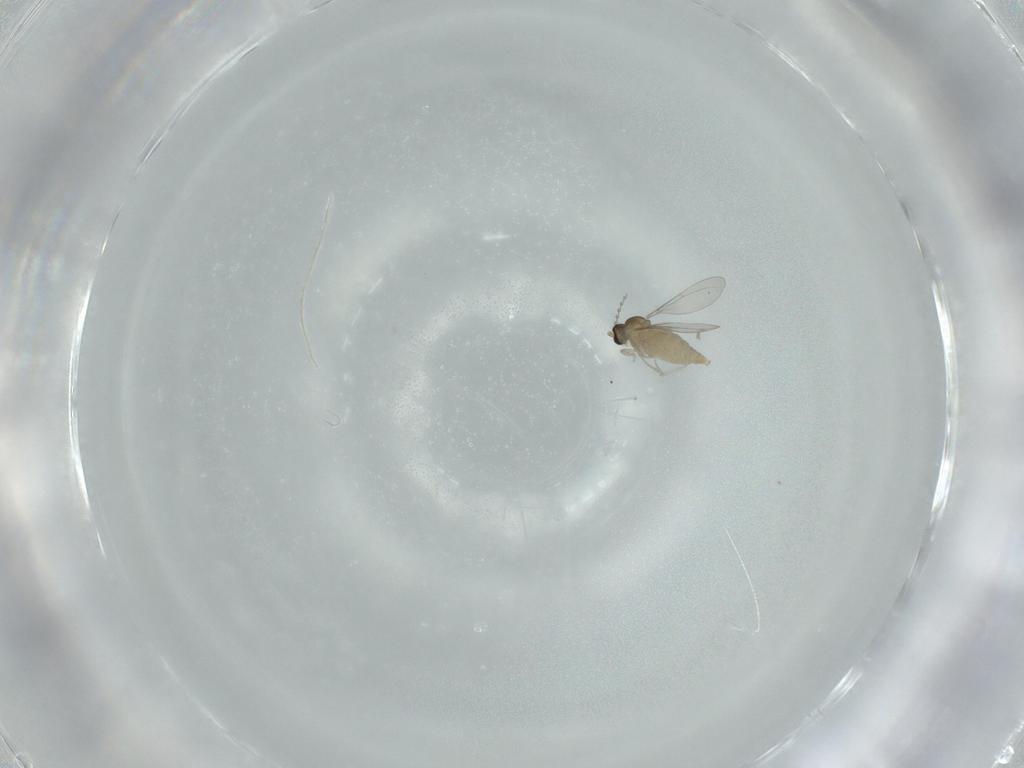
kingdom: Animalia
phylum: Arthropoda
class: Insecta
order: Diptera
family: Cecidomyiidae
